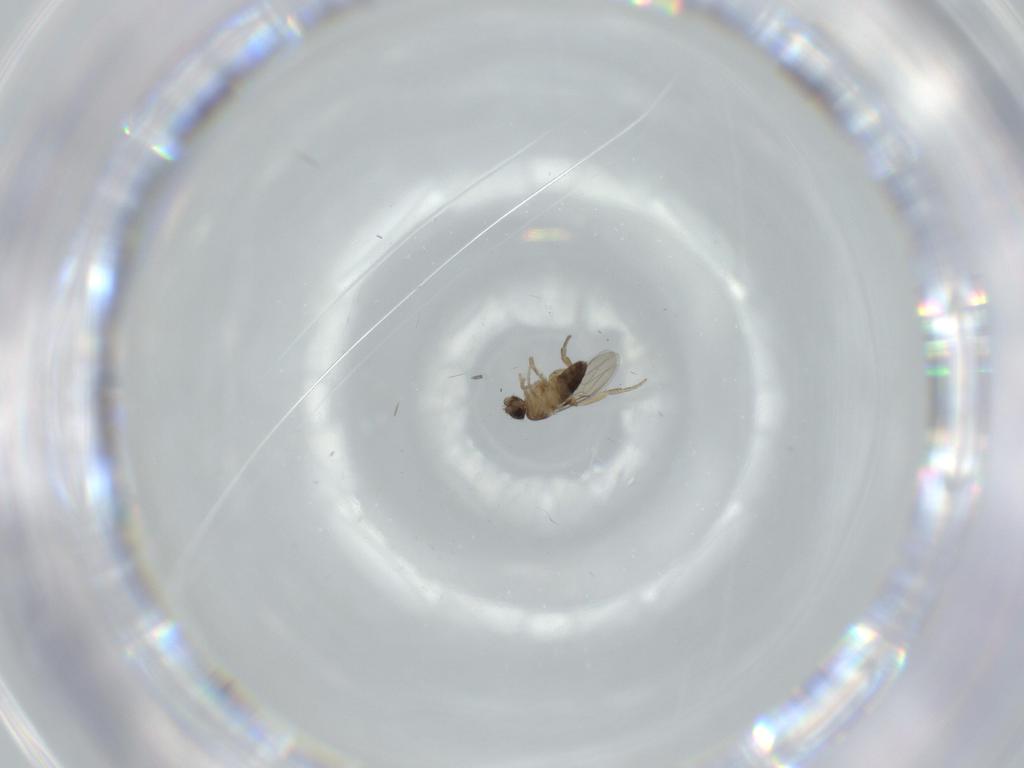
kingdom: Animalia
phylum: Arthropoda
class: Insecta
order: Diptera
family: Phoridae
